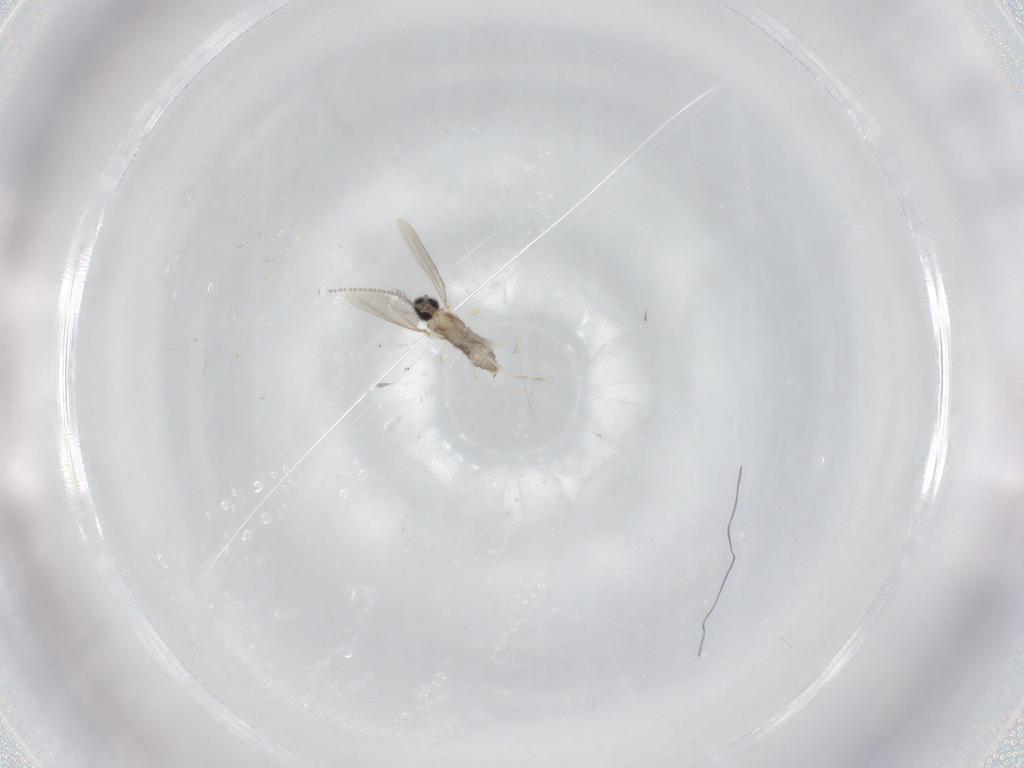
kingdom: Animalia
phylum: Arthropoda
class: Insecta
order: Diptera
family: Cecidomyiidae
